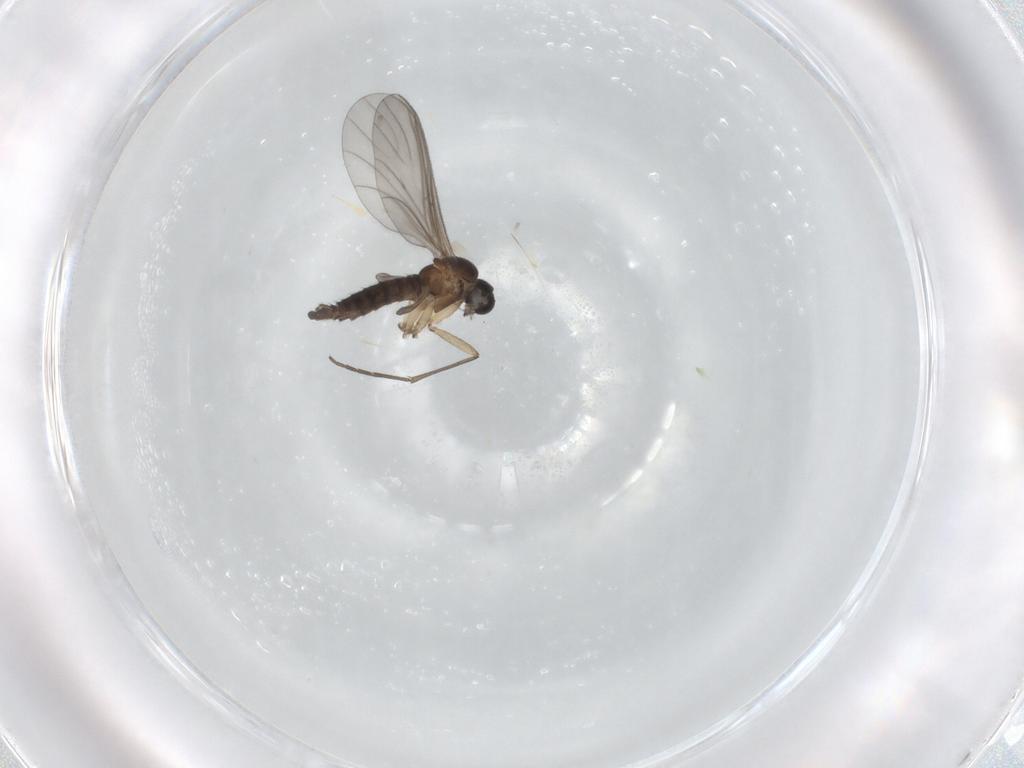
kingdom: Animalia
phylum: Arthropoda
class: Insecta
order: Diptera
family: Sciaridae
